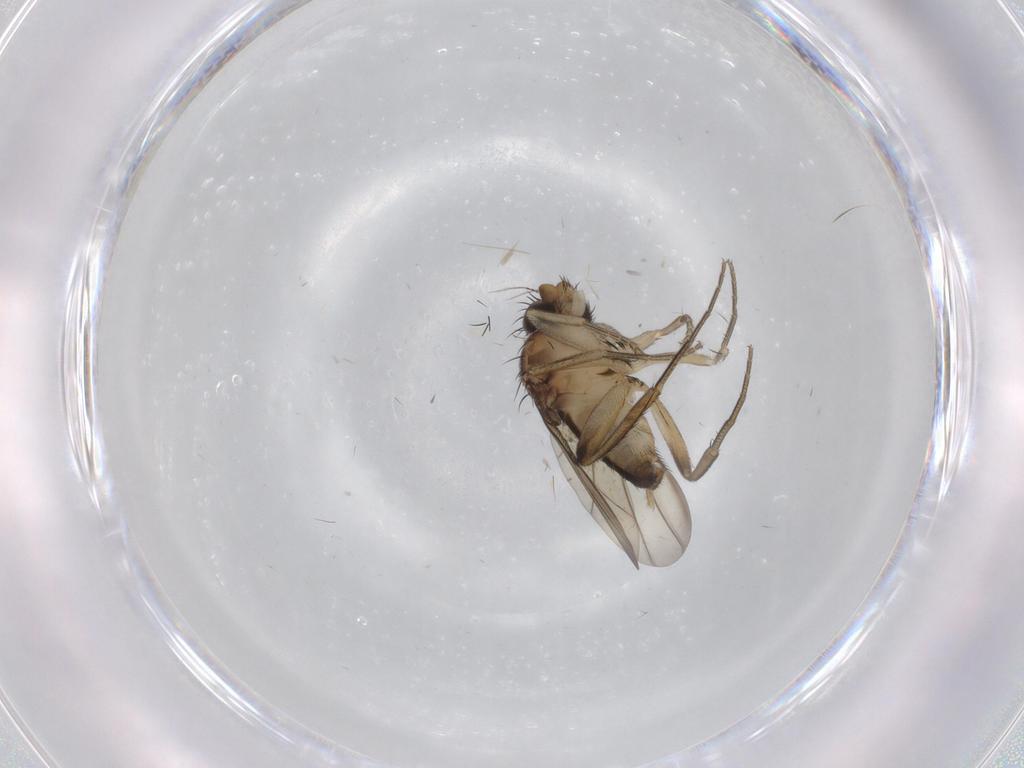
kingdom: Animalia
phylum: Arthropoda
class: Insecta
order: Diptera
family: Phoridae
